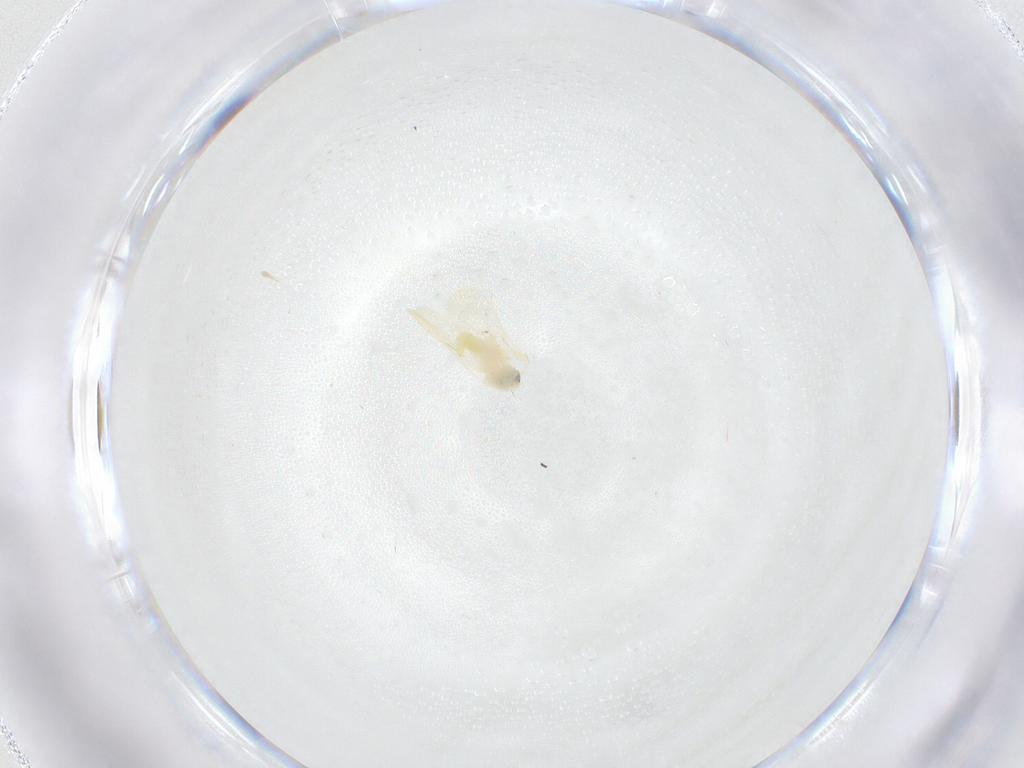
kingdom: Animalia
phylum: Arthropoda
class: Insecta
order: Hemiptera
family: Aleyrodidae
